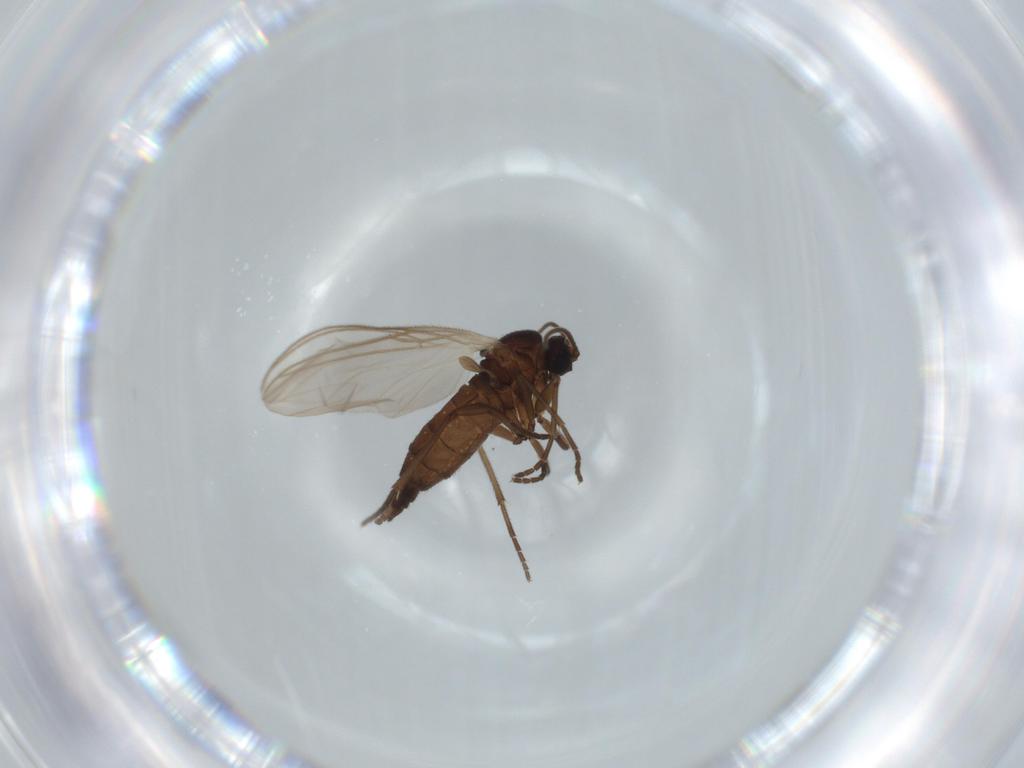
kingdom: Animalia
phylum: Arthropoda
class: Insecta
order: Diptera
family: Sciaridae
